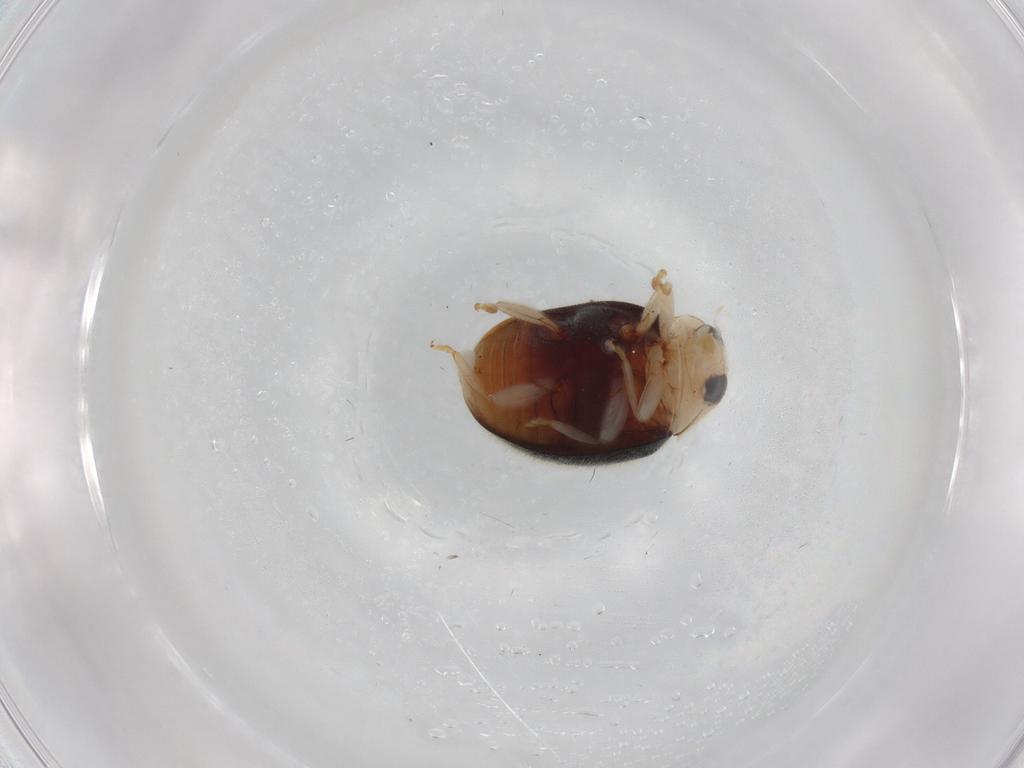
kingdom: Animalia
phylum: Arthropoda
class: Insecta
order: Coleoptera
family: Coccinellidae
